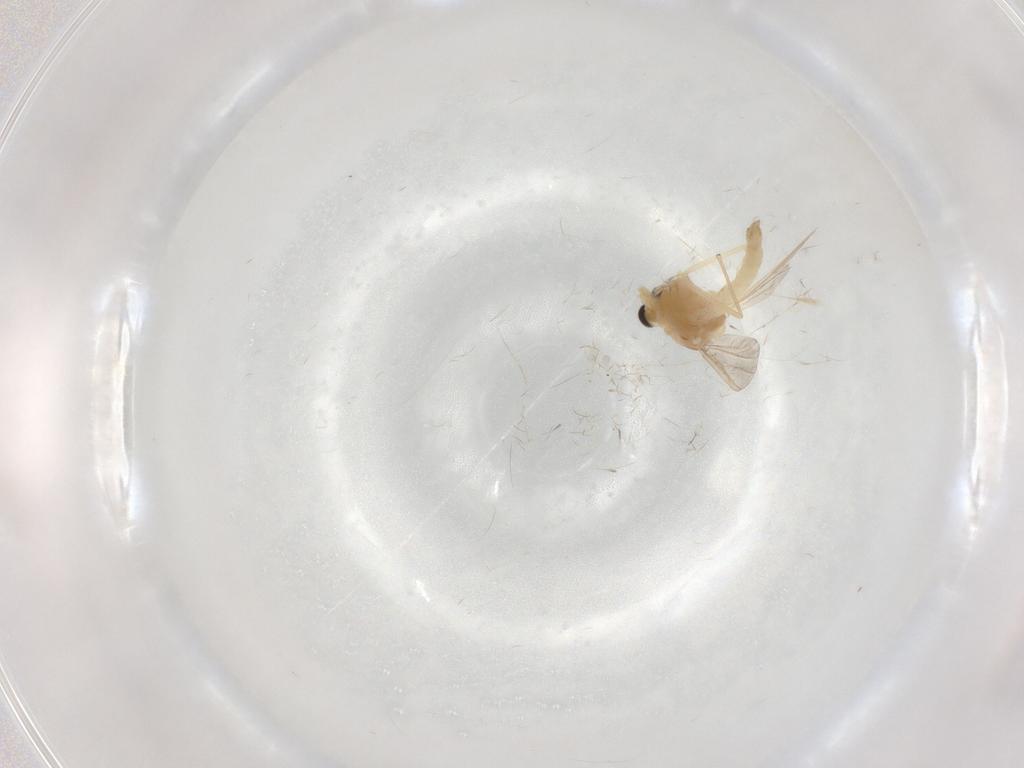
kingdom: Animalia
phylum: Arthropoda
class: Insecta
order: Diptera
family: Chironomidae
